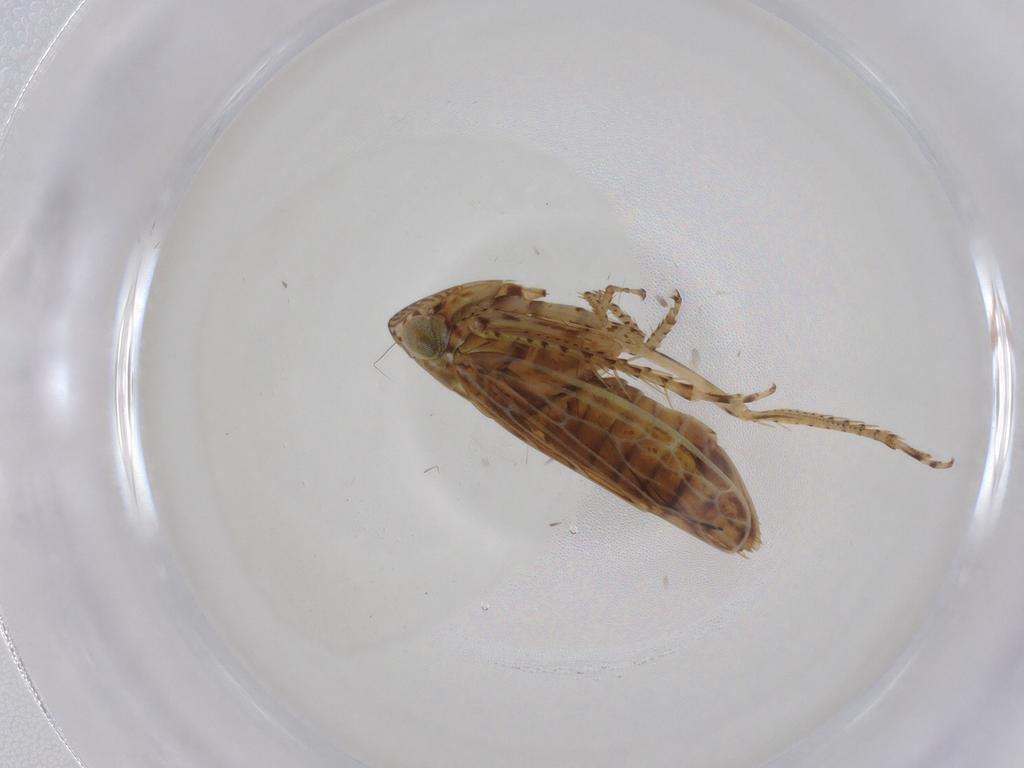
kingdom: Animalia
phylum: Arthropoda
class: Insecta
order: Hemiptera
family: Cicadellidae
